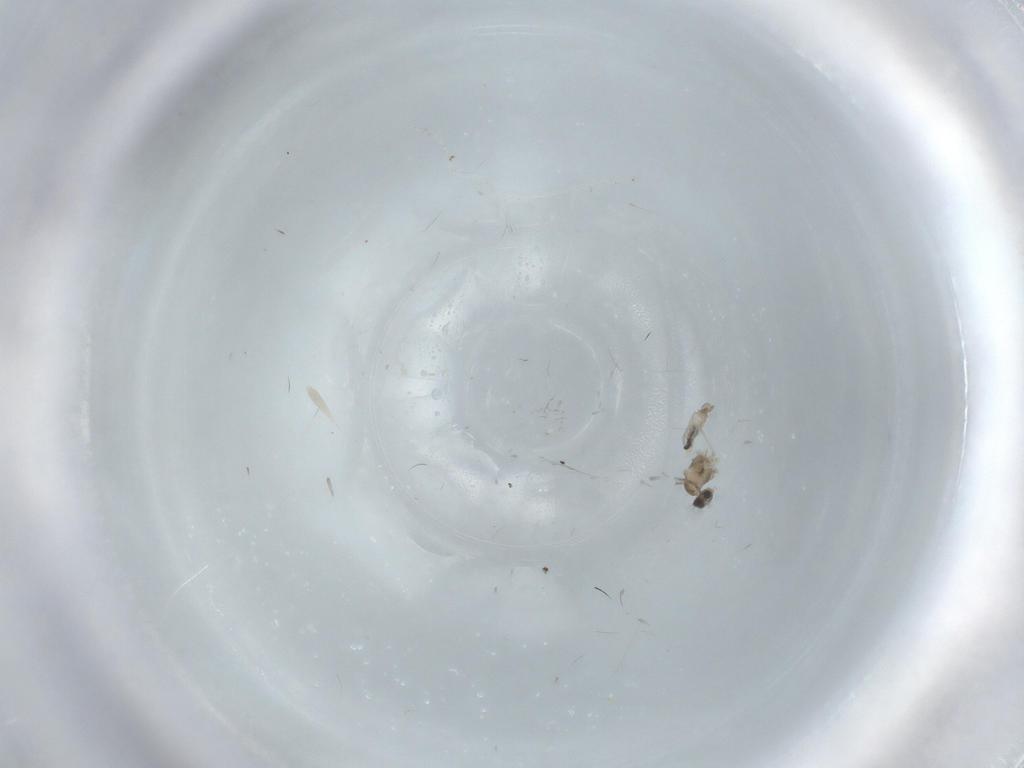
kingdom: Animalia
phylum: Arthropoda
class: Insecta
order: Diptera
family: Cecidomyiidae
